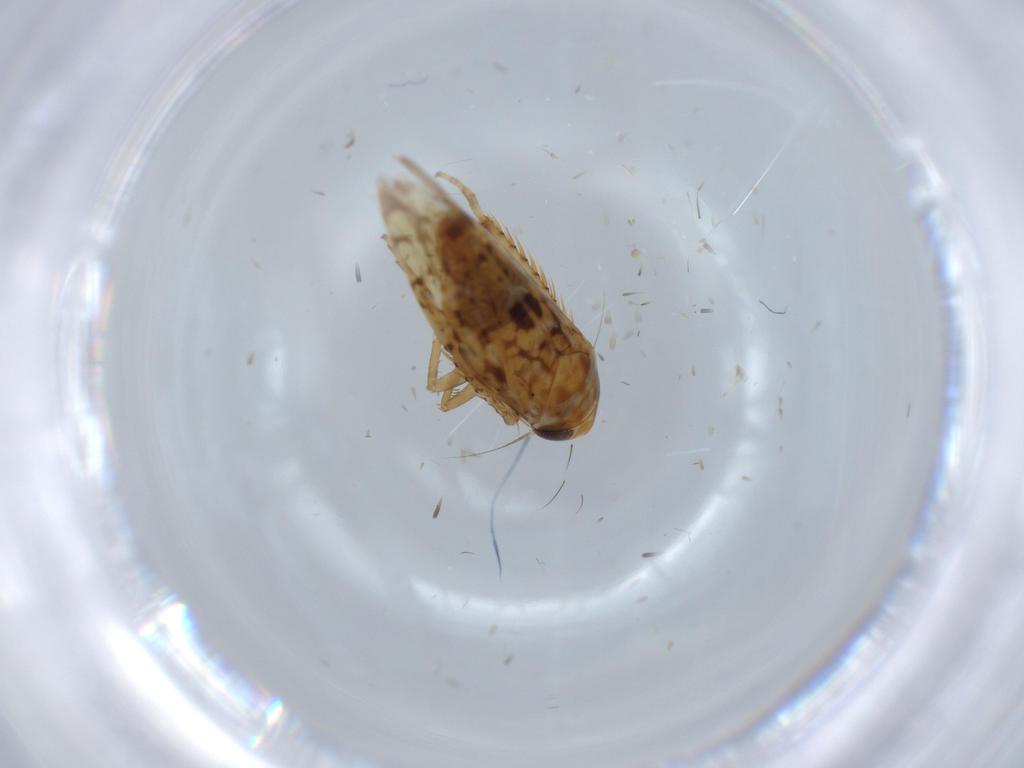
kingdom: Animalia
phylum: Arthropoda
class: Insecta
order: Hemiptera
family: Cicadellidae
